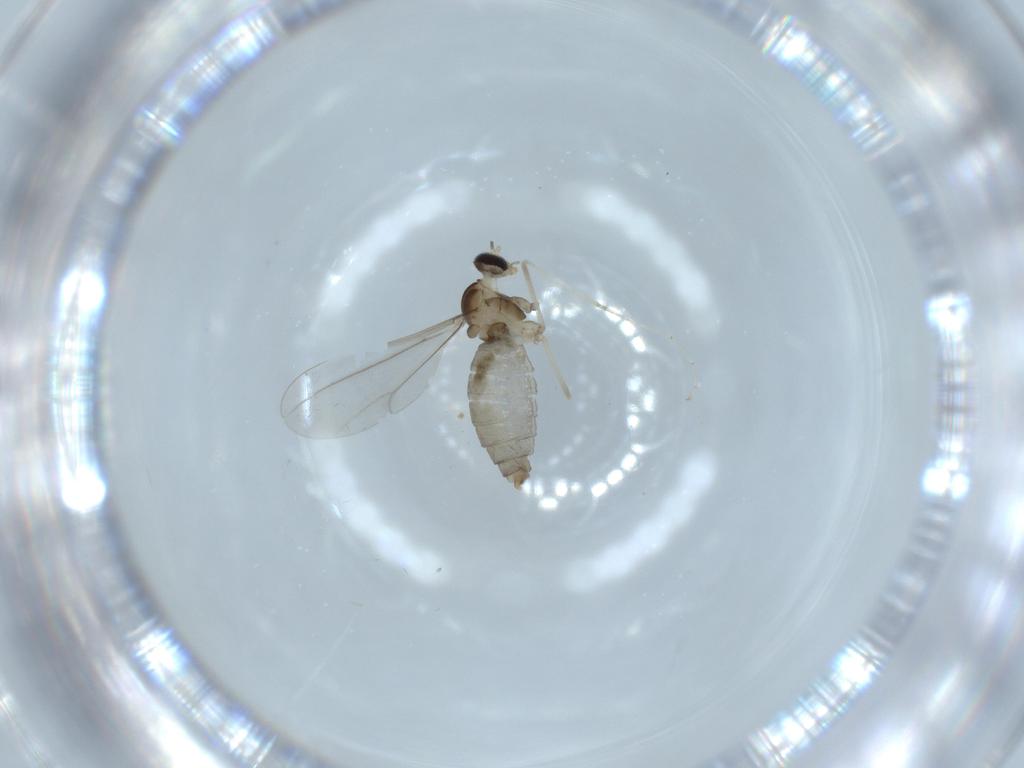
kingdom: Animalia
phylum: Arthropoda
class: Insecta
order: Diptera
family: Cecidomyiidae
